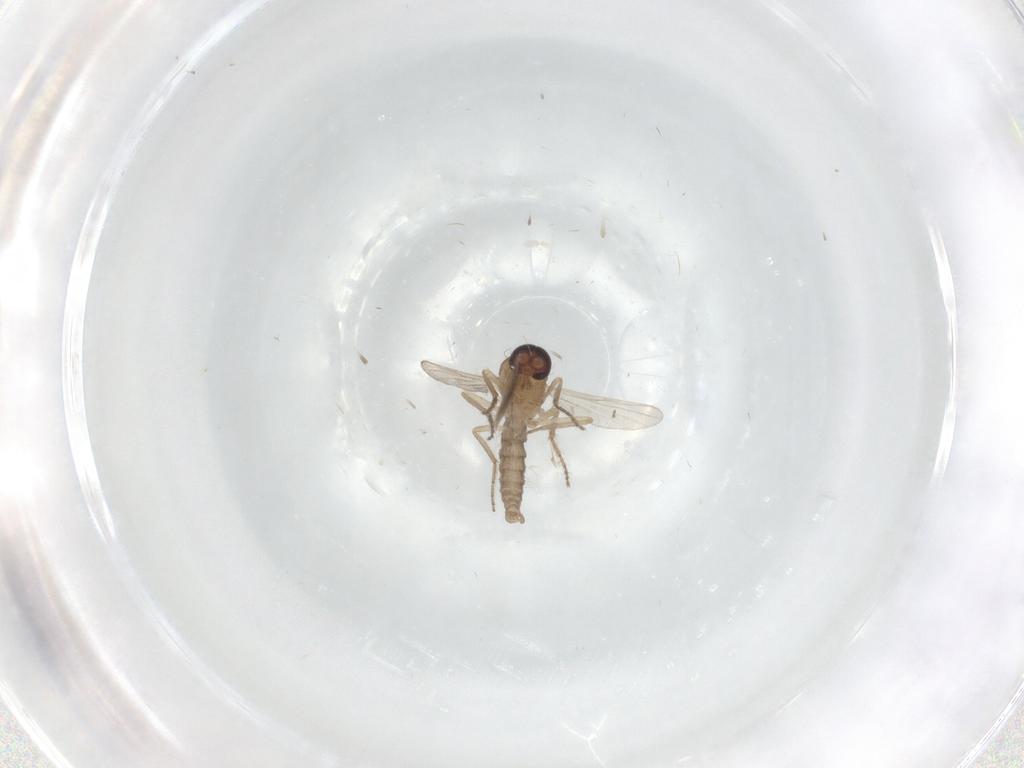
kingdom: Animalia
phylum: Arthropoda
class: Insecta
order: Diptera
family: Ceratopogonidae
